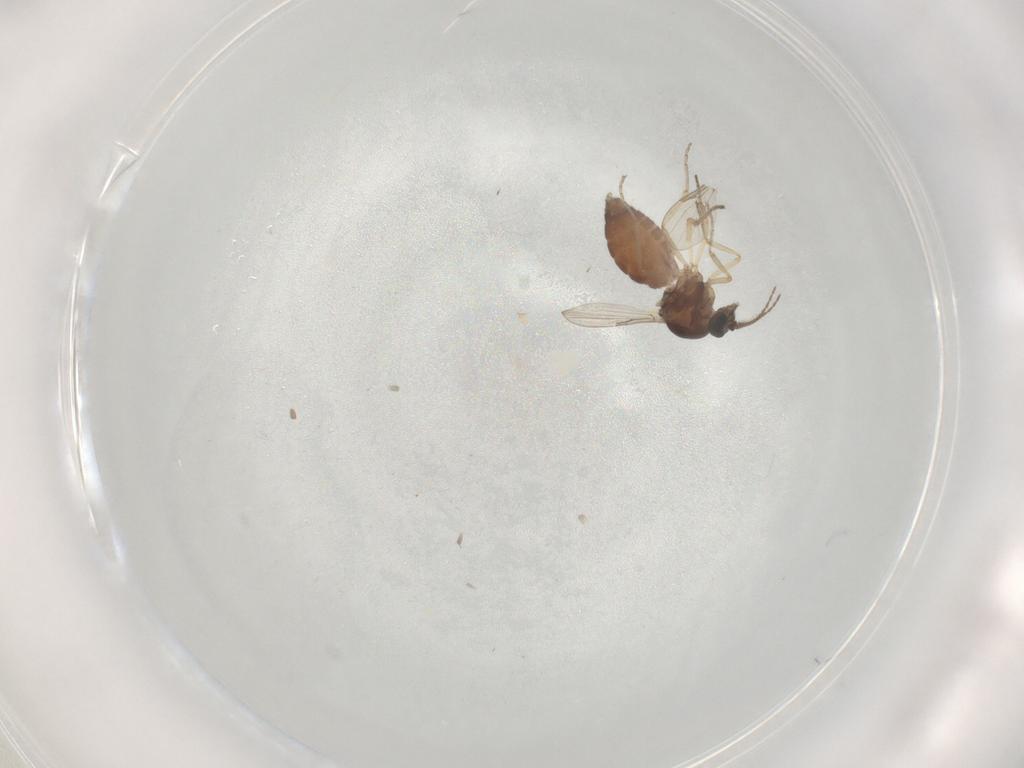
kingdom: Animalia
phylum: Arthropoda
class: Insecta
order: Diptera
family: Ceratopogonidae
